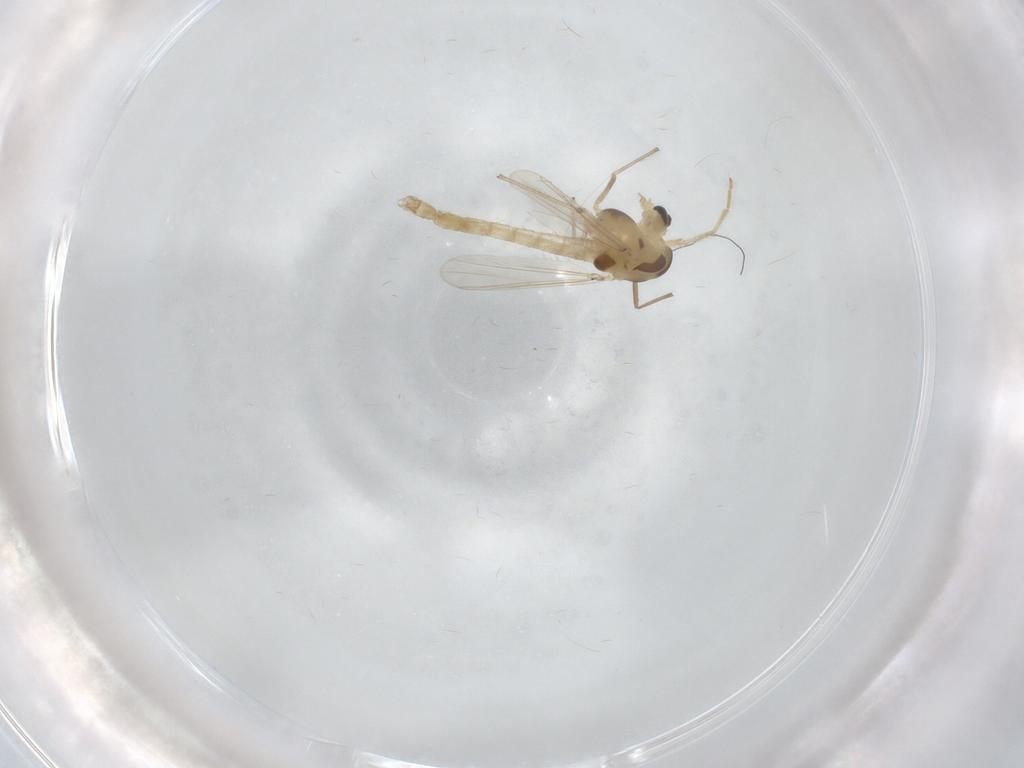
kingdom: Animalia
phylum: Arthropoda
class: Insecta
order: Diptera
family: Chironomidae
